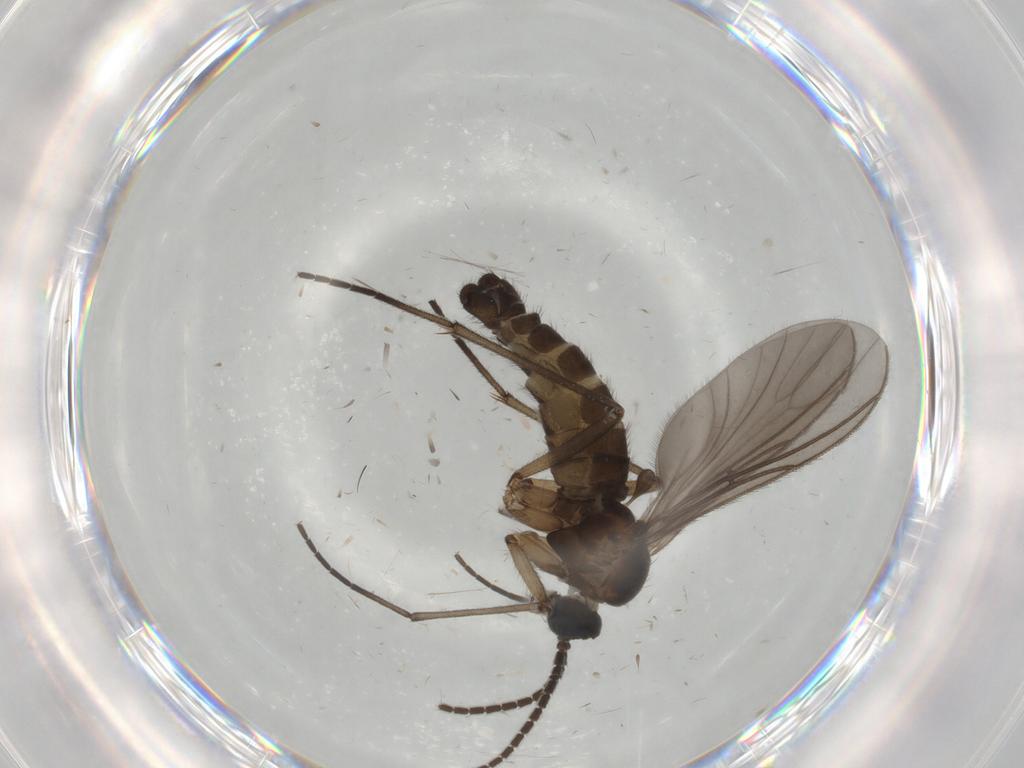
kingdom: Animalia
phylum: Arthropoda
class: Insecta
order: Diptera
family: Sciaridae
